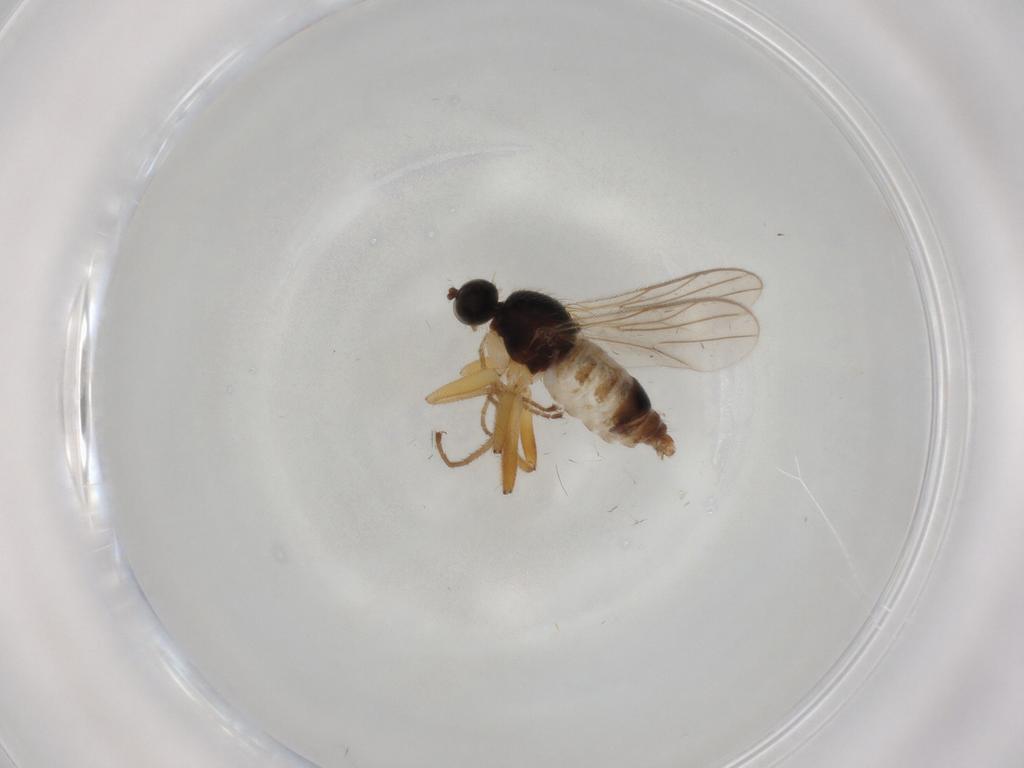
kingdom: Animalia
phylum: Arthropoda
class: Insecta
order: Diptera
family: Hybotidae
